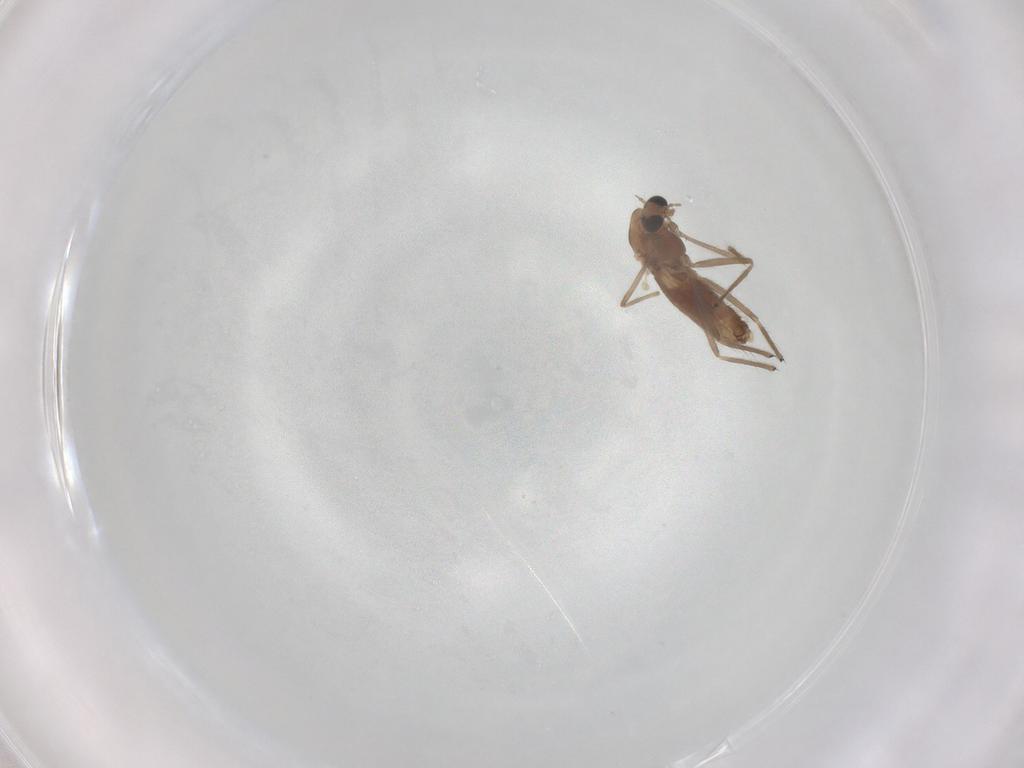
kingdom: Animalia
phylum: Arthropoda
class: Insecta
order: Diptera
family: Chironomidae
